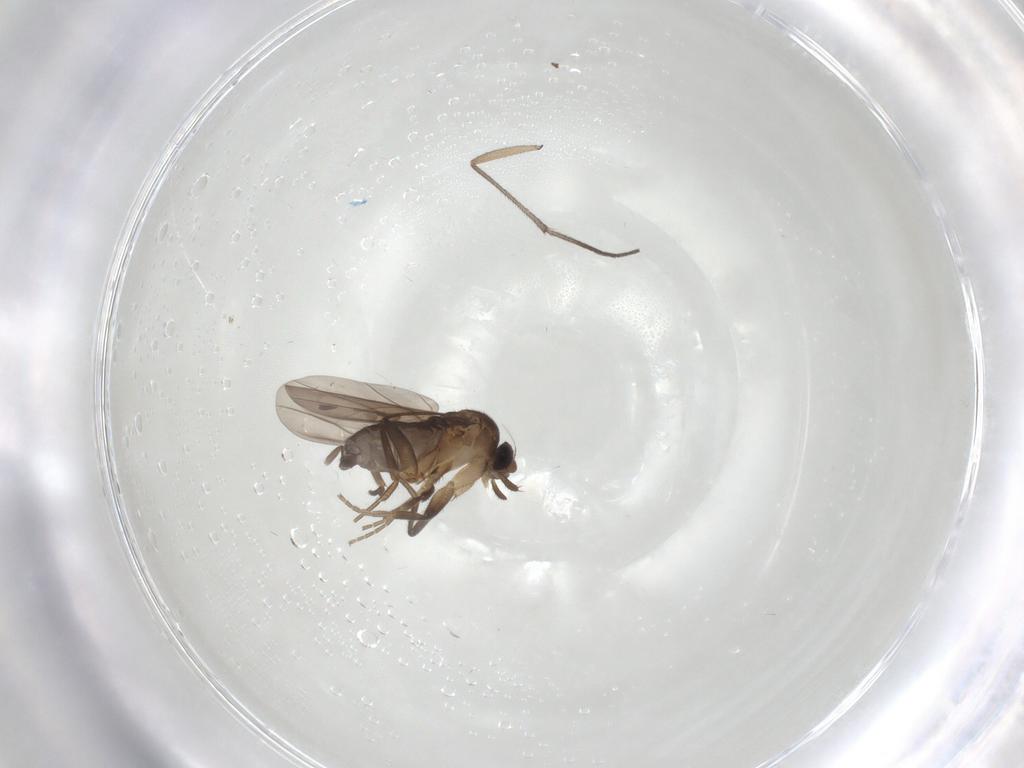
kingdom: Animalia
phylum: Arthropoda
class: Insecta
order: Diptera
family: Sciaridae
